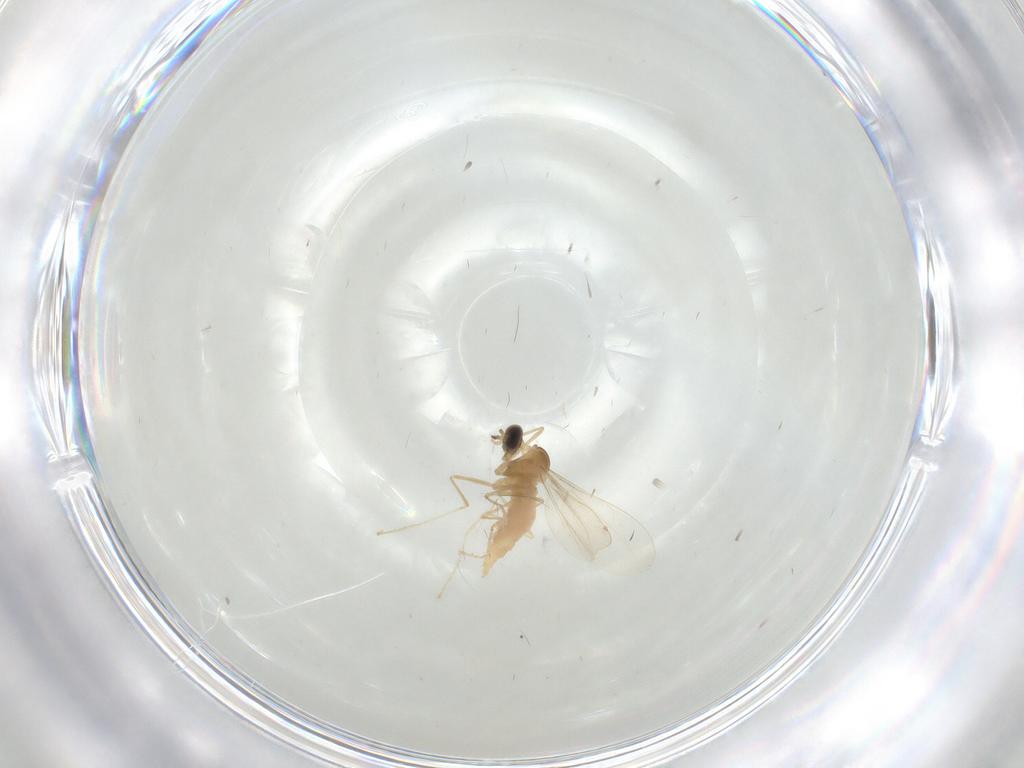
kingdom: Animalia
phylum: Arthropoda
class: Insecta
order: Diptera
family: Cecidomyiidae
